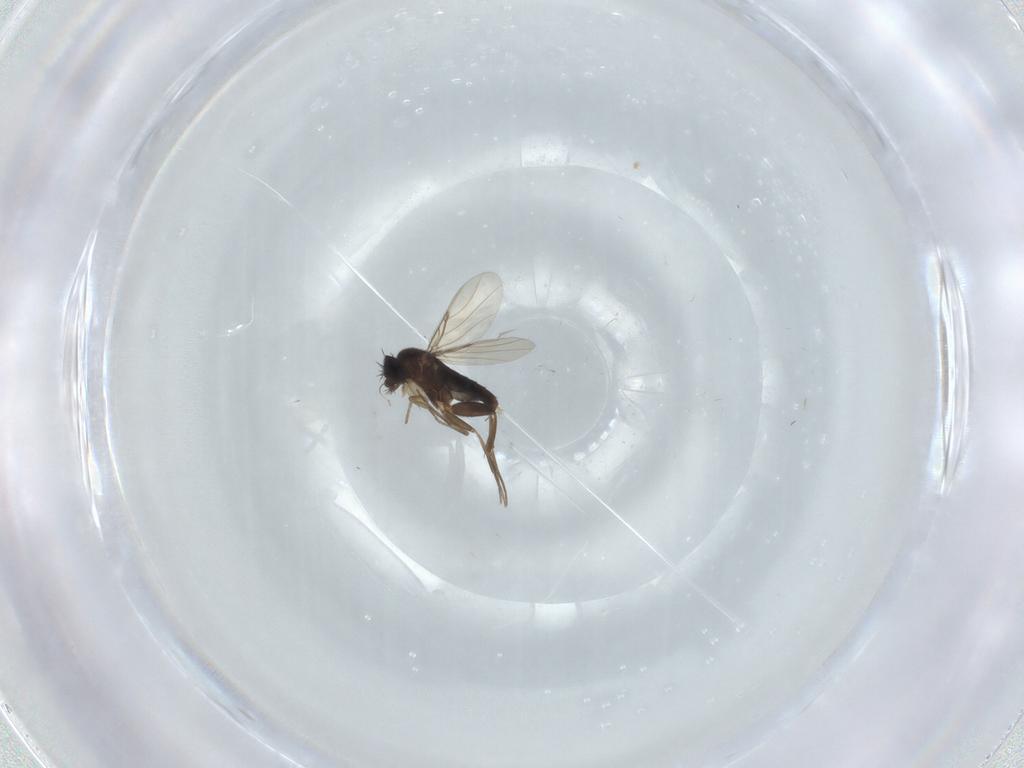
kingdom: Animalia
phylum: Arthropoda
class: Insecta
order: Diptera
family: Phoridae
